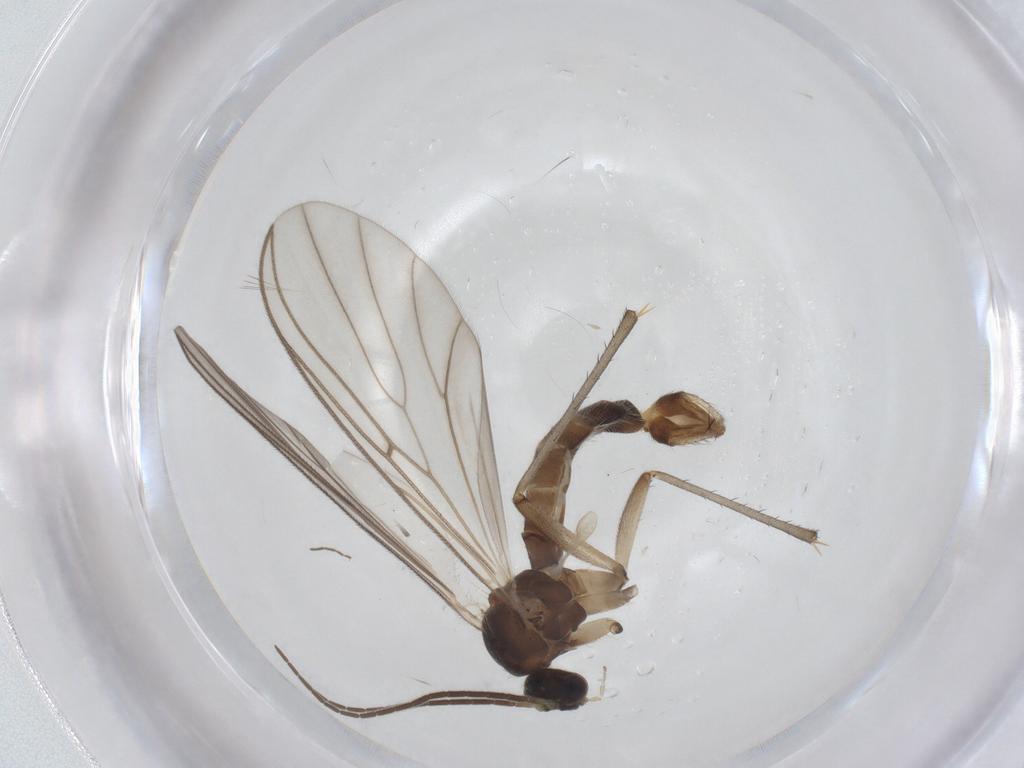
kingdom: Animalia
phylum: Arthropoda
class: Insecta
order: Diptera
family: Mycetophilidae
